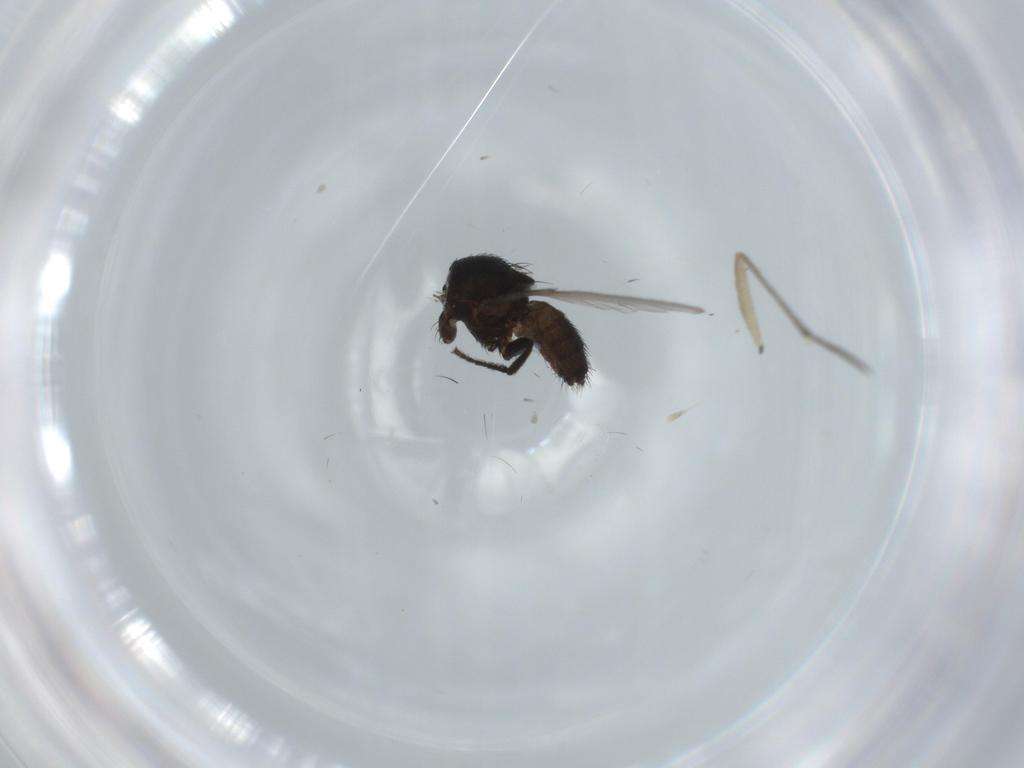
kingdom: Animalia
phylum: Arthropoda
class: Insecta
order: Diptera
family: Milichiidae
